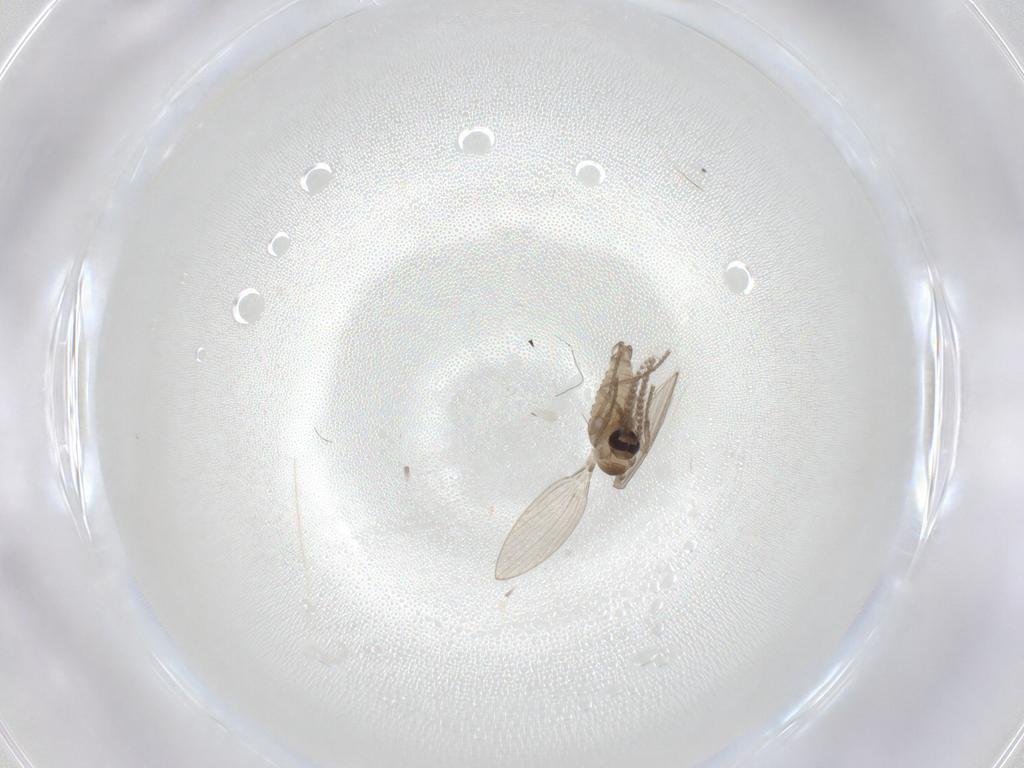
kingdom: Animalia
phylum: Arthropoda
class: Insecta
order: Diptera
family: Psychodidae
